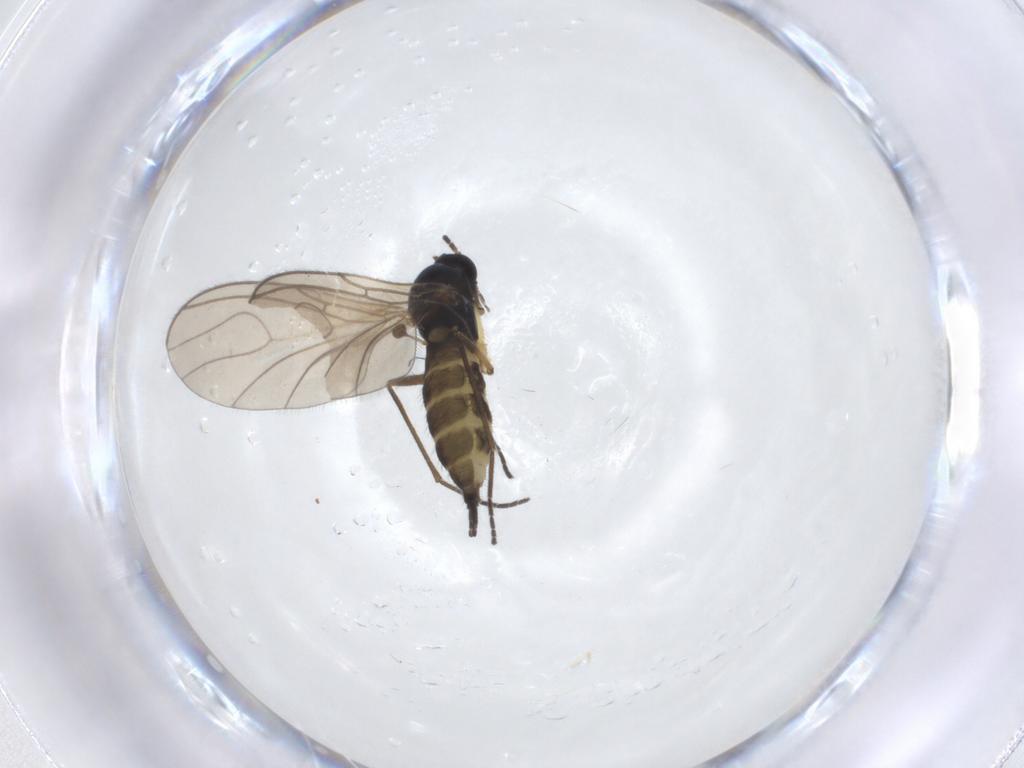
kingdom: Animalia
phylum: Arthropoda
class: Insecta
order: Diptera
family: Sciaridae
